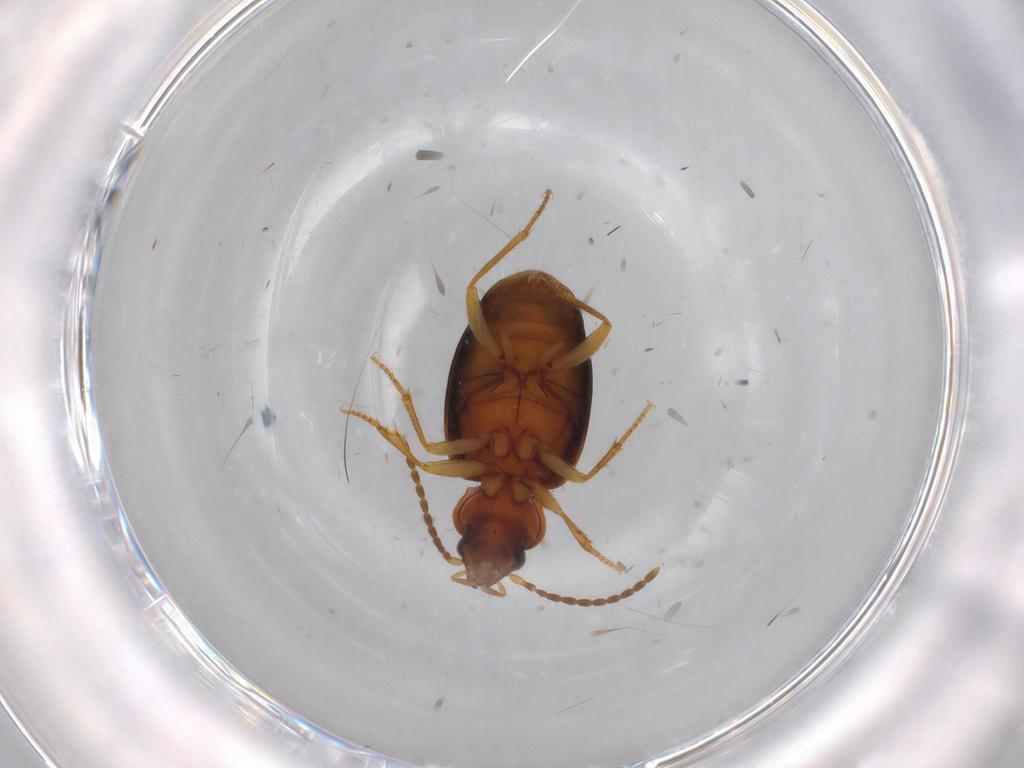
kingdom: Animalia
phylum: Arthropoda
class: Insecta
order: Coleoptera
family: Carabidae
